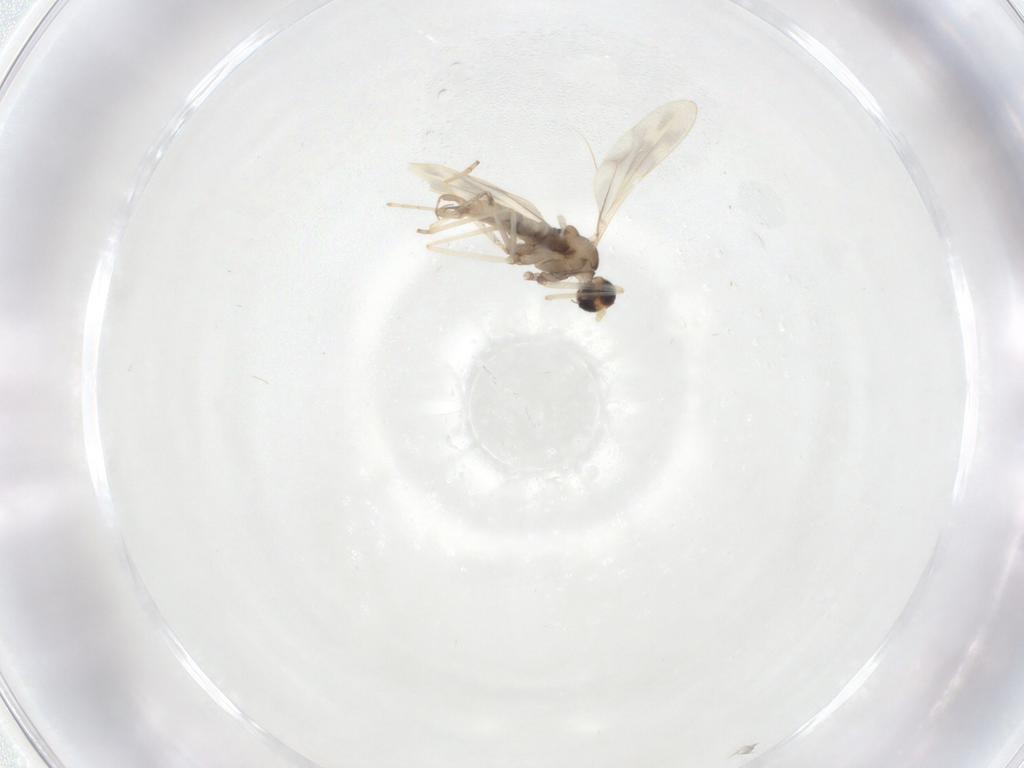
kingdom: Animalia
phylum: Arthropoda
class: Insecta
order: Diptera
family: Cecidomyiidae
